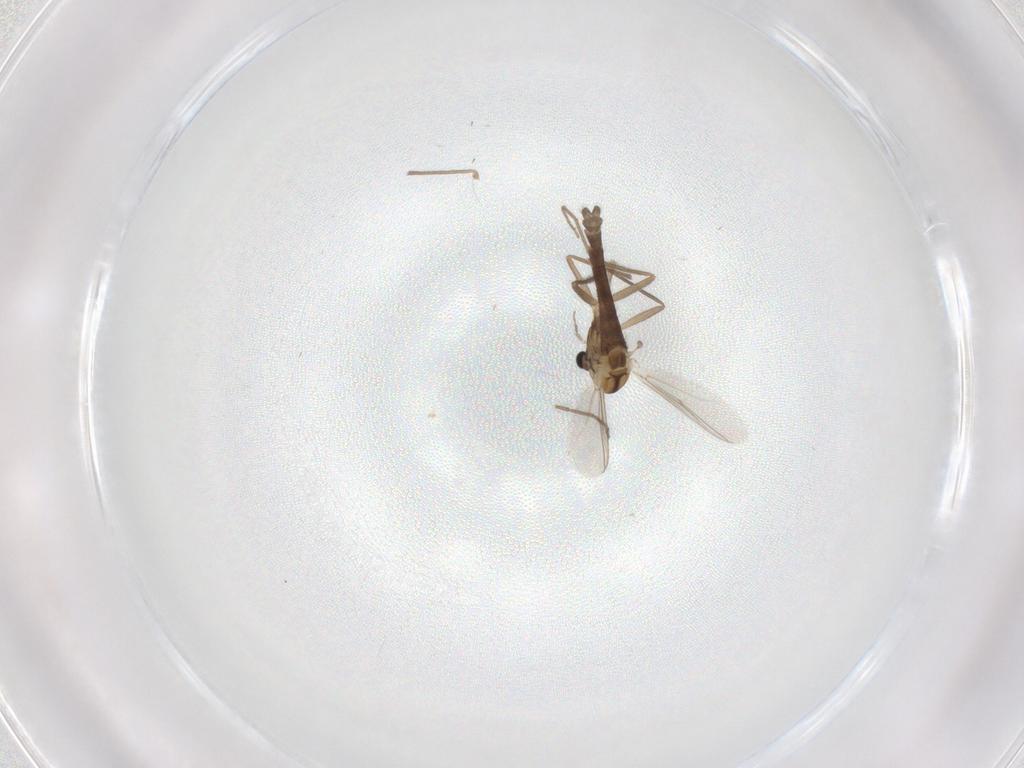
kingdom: Animalia
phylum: Arthropoda
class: Insecta
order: Diptera
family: Chironomidae
